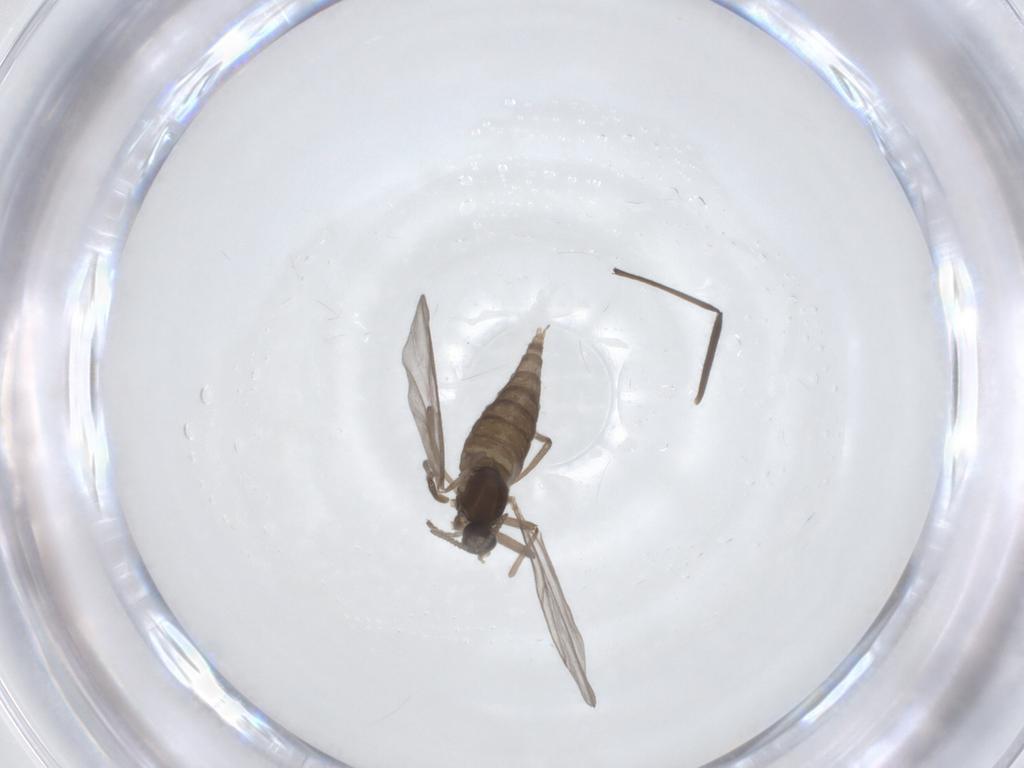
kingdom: Animalia
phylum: Arthropoda
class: Insecta
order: Diptera
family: Cecidomyiidae
